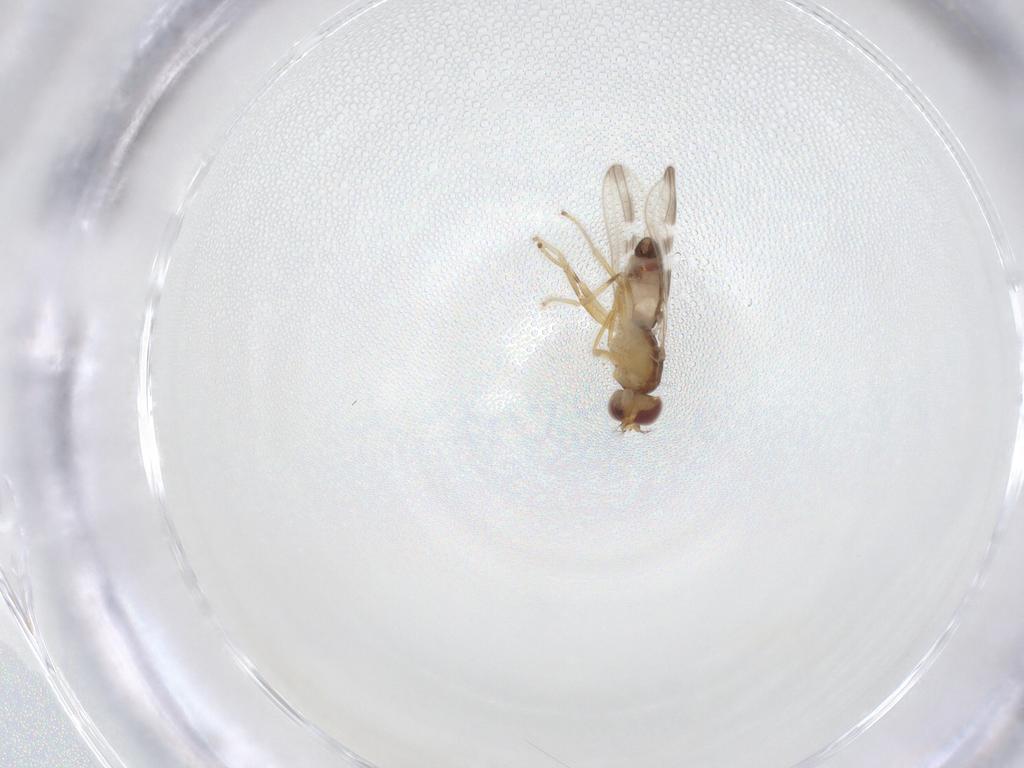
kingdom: Animalia
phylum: Arthropoda
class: Insecta
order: Diptera
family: Periscelididae
